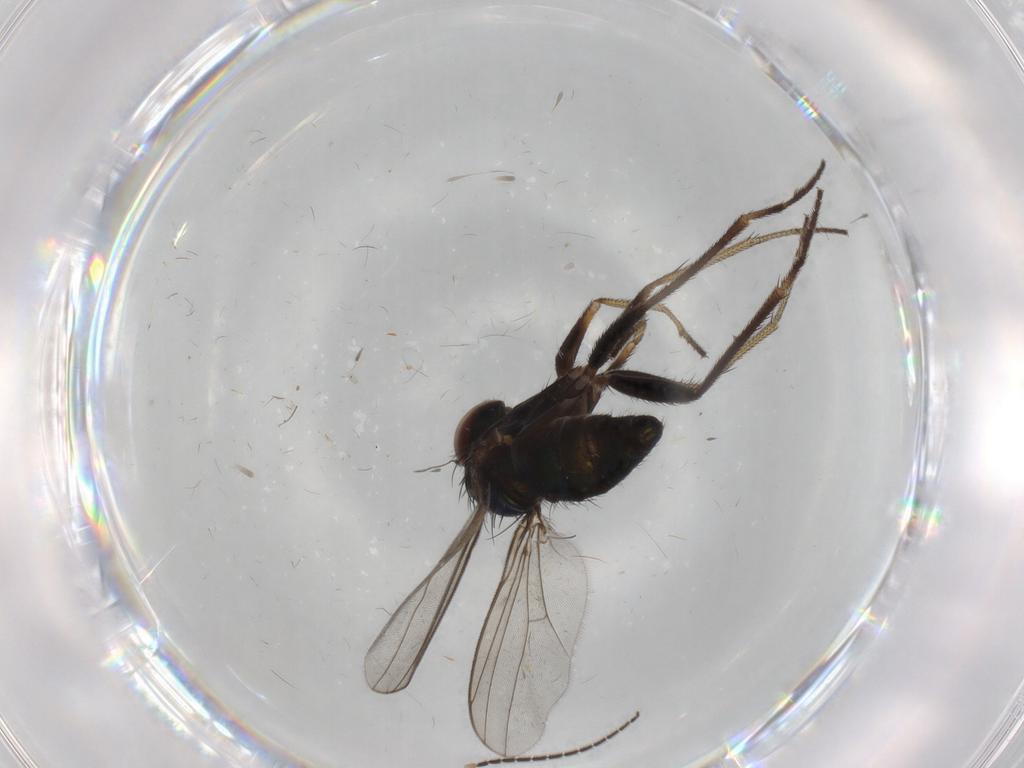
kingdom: Animalia
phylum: Arthropoda
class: Insecta
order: Diptera
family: Sciaridae
